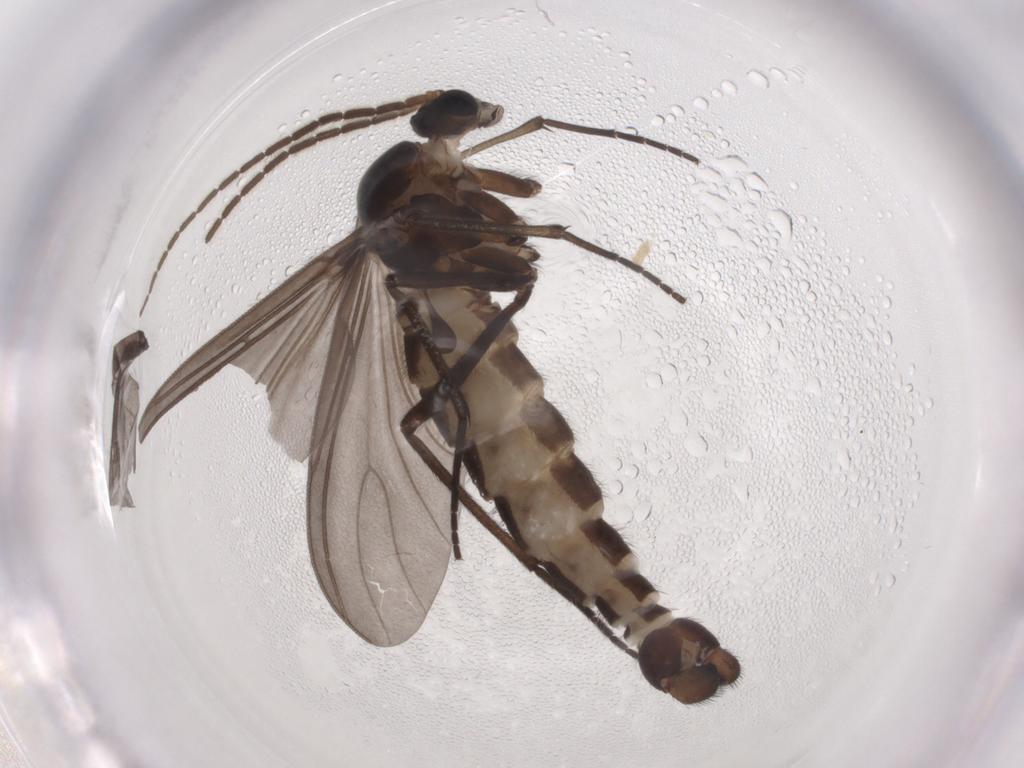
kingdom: Animalia
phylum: Arthropoda
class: Insecta
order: Diptera
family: Sciaridae
